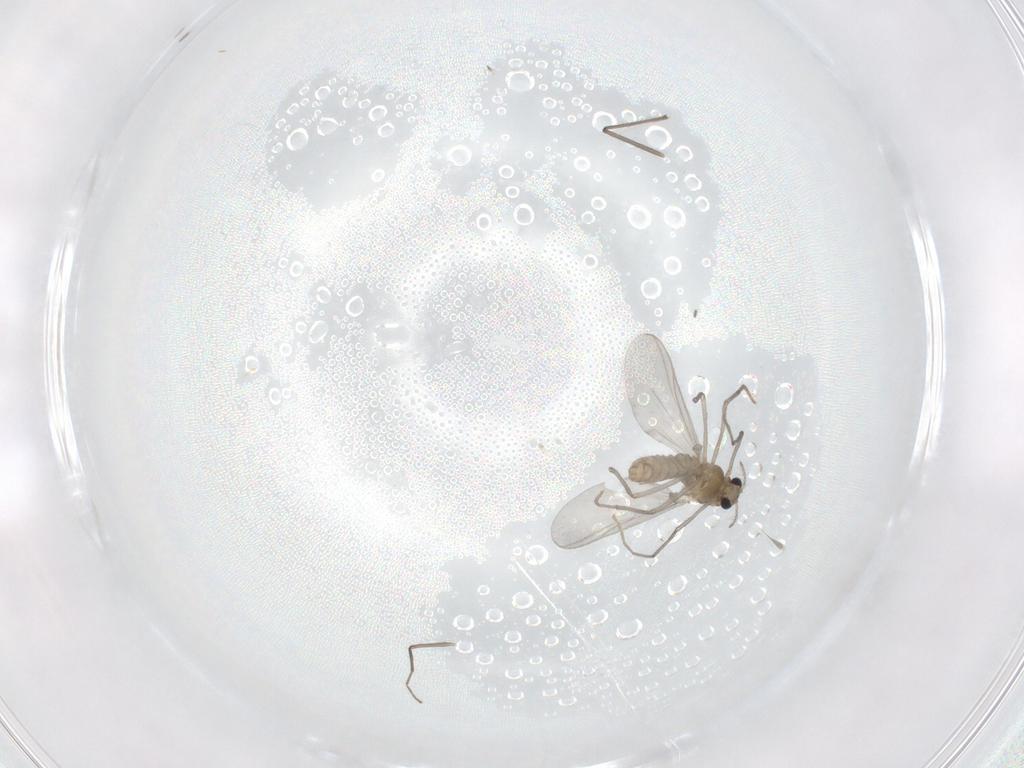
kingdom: Animalia
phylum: Arthropoda
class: Insecta
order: Diptera
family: Chironomidae
